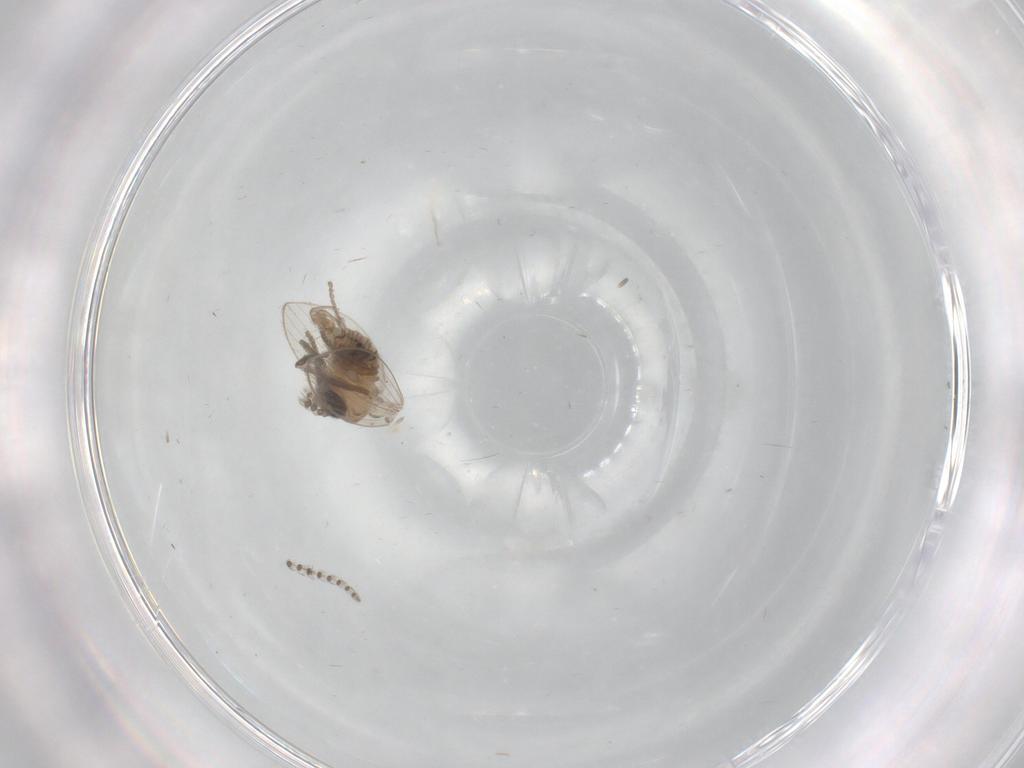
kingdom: Animalia
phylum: Arthropoda
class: Insecta
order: Diptera
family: Psychodidae
